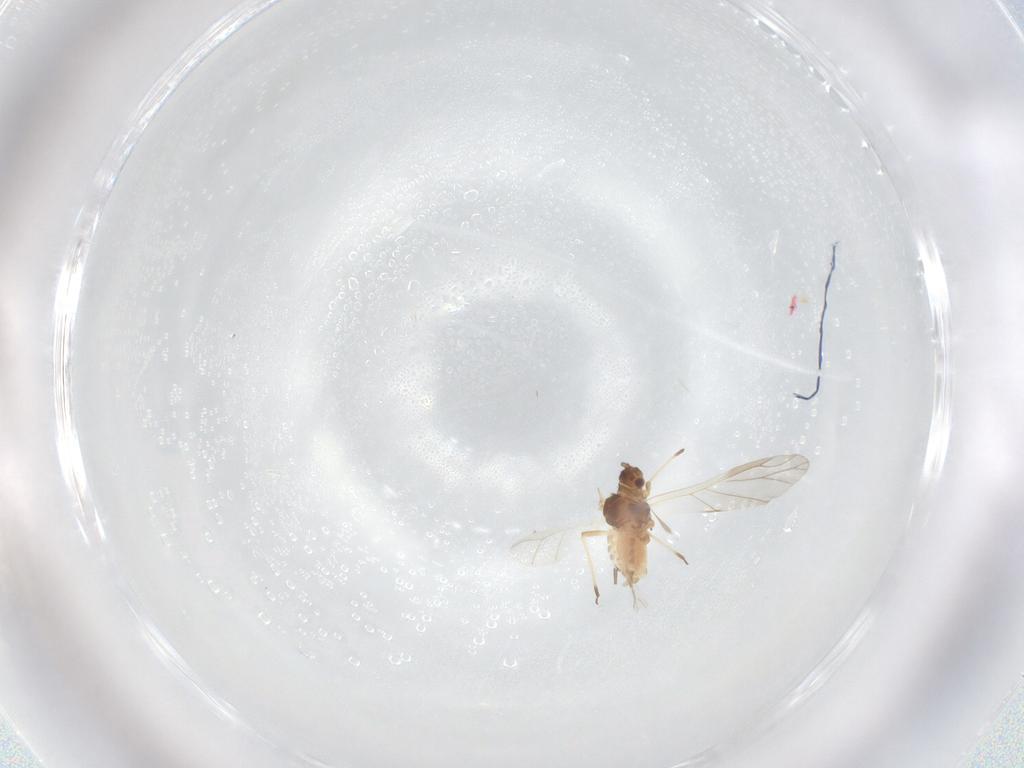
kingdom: Animalia
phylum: Arthropoda
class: Insecta
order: Hemiptera
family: Aphididae
